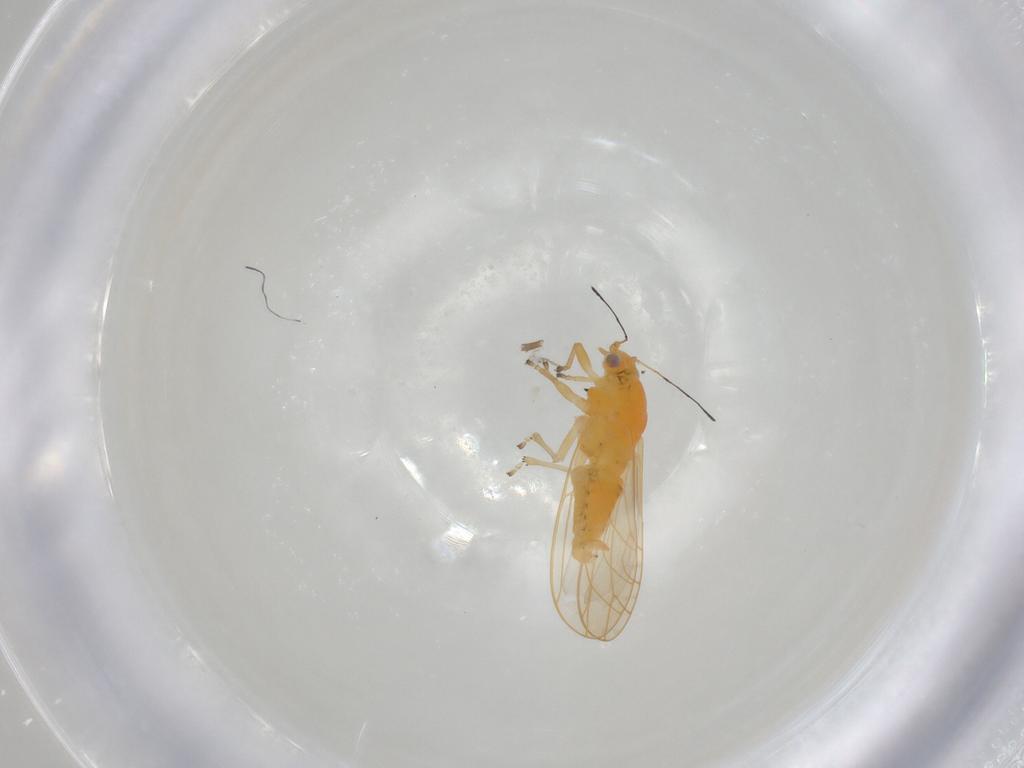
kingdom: Animalia
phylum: Arthropoda
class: Insecta
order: Hemiptera
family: Triozidae
